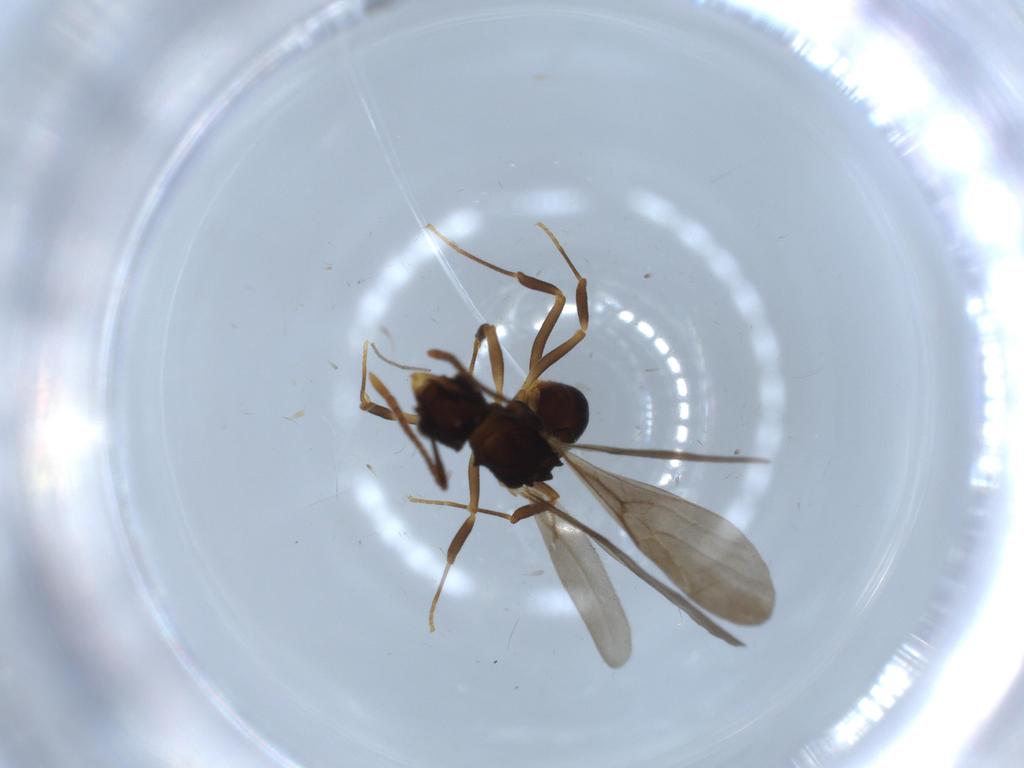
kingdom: Animalia
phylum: Arthropoda
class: Insecta
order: Hymenoptera
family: Formicidae
